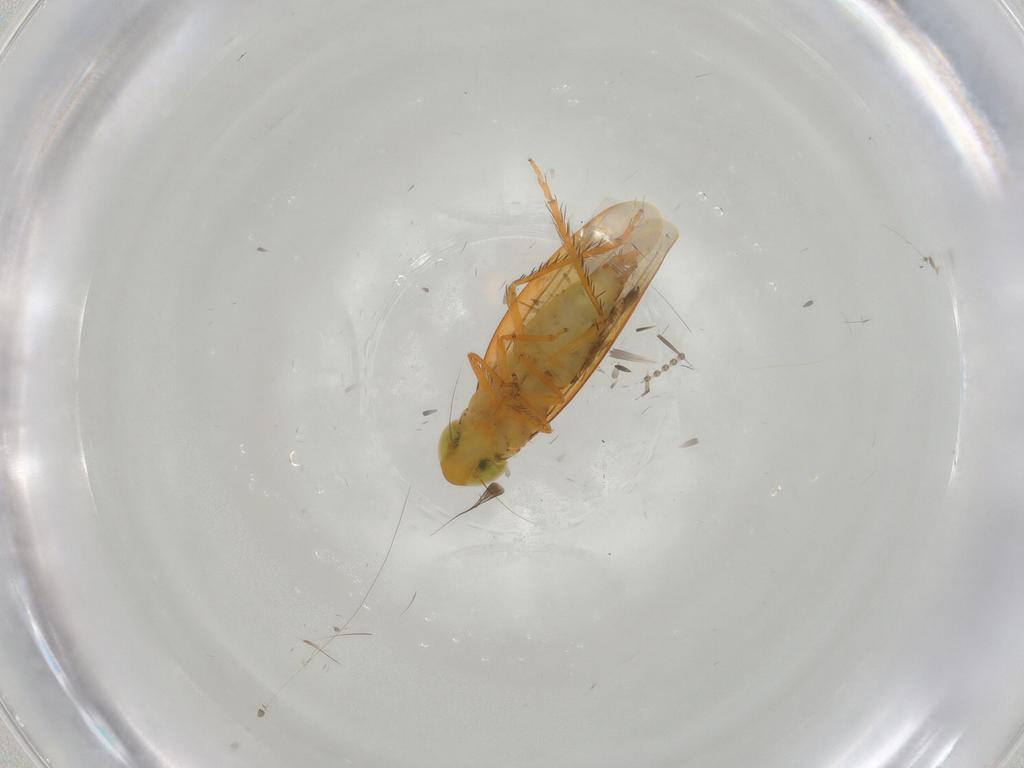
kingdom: Animalia
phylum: Arthropoda
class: Insecta
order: Hemiptera
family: Cicadellidae
